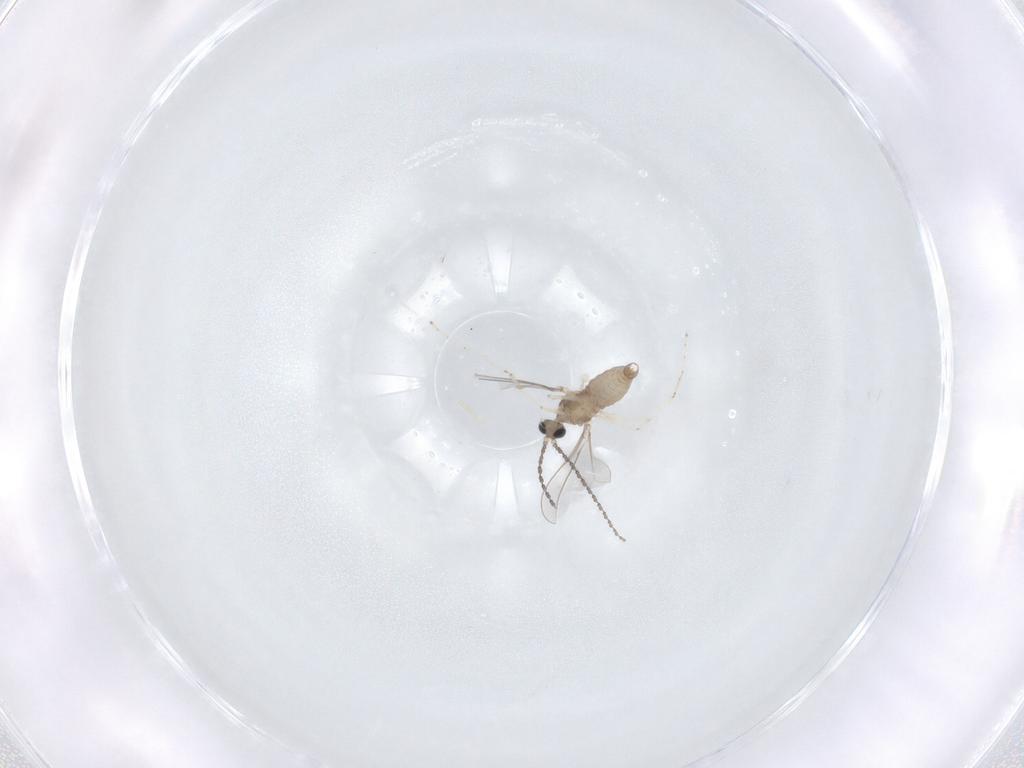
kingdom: Animalia
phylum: Arthropoda
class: Insecta
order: Diptera
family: Cecidomyiidae
